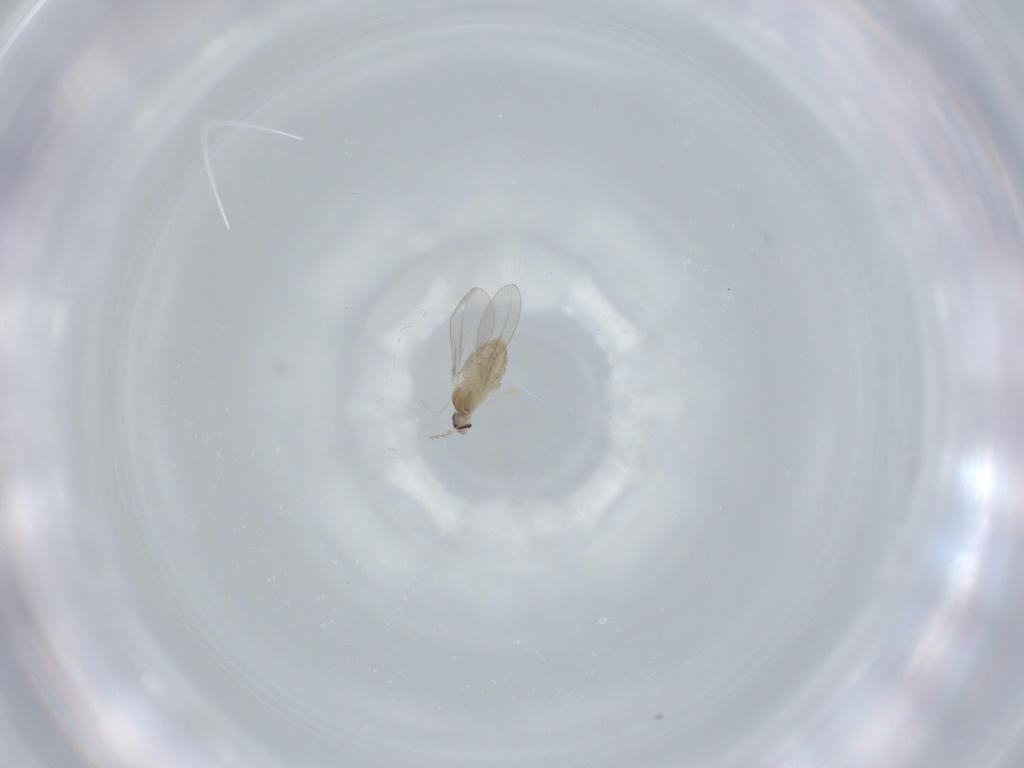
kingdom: Animalia
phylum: Arthropoda
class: Insecta
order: Diptera
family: Cecidomyiidae
